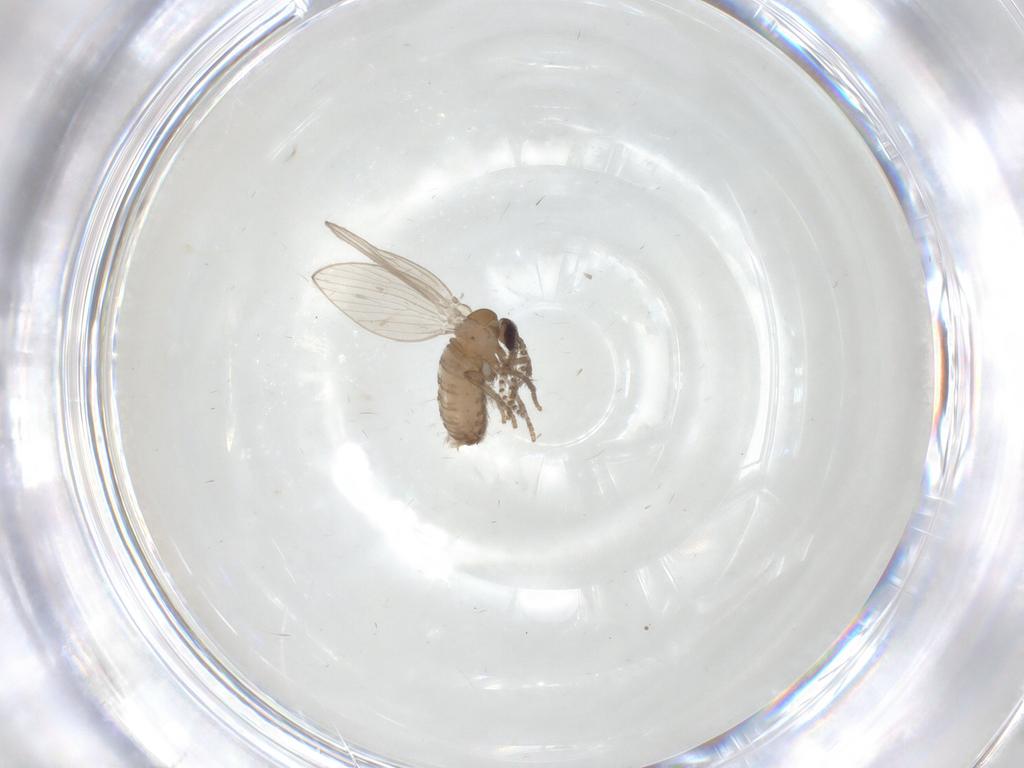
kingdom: Animalia
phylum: Arthropoda
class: Insecta
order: Diptera
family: Psychodidae
